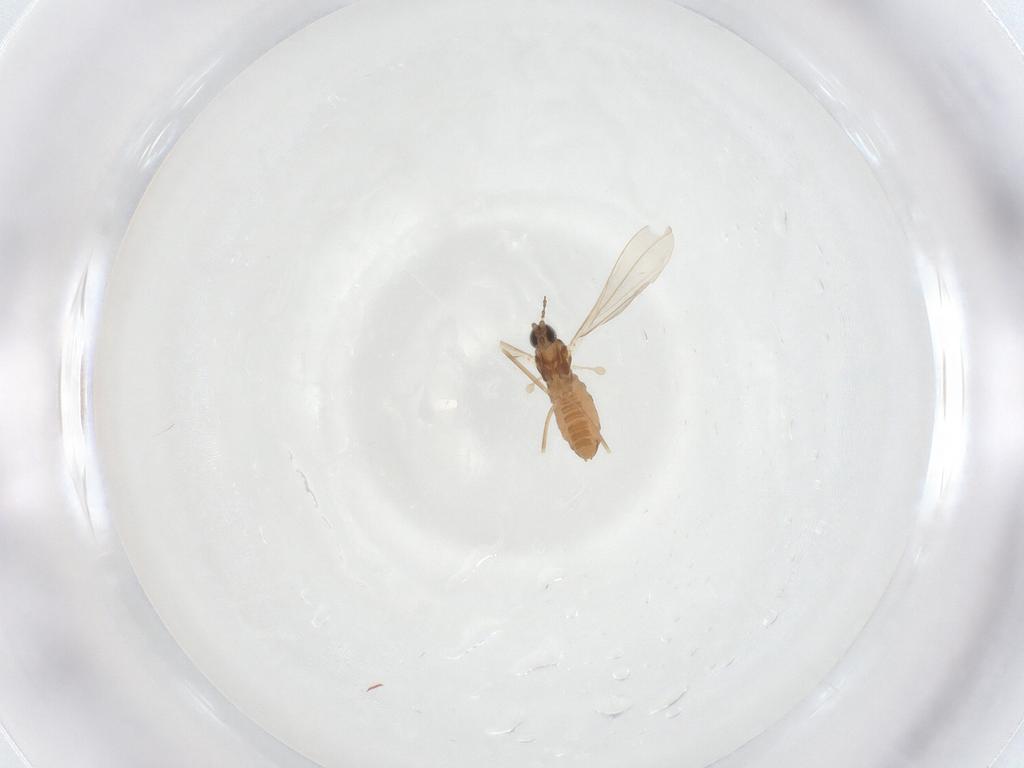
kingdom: Animalia
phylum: Arthropoda
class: Insecta
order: Diptera
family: Cecidomyiidae
